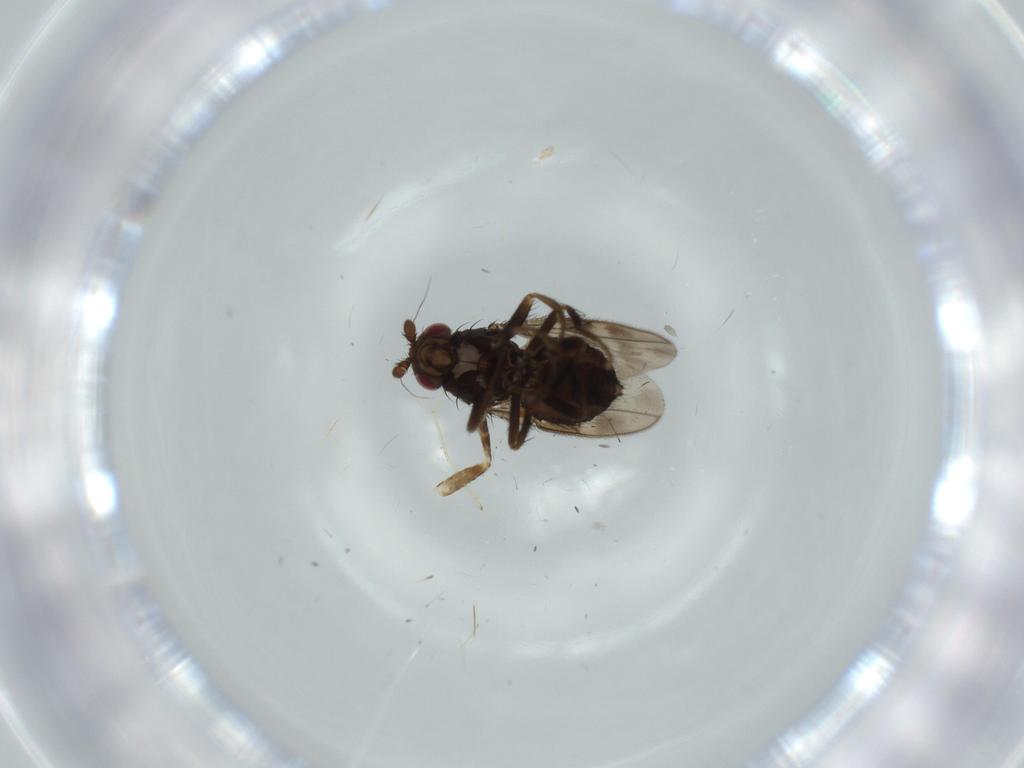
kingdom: Animalia
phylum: Arthropoda
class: Insecta
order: Diptera
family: Sphaeroceridae
